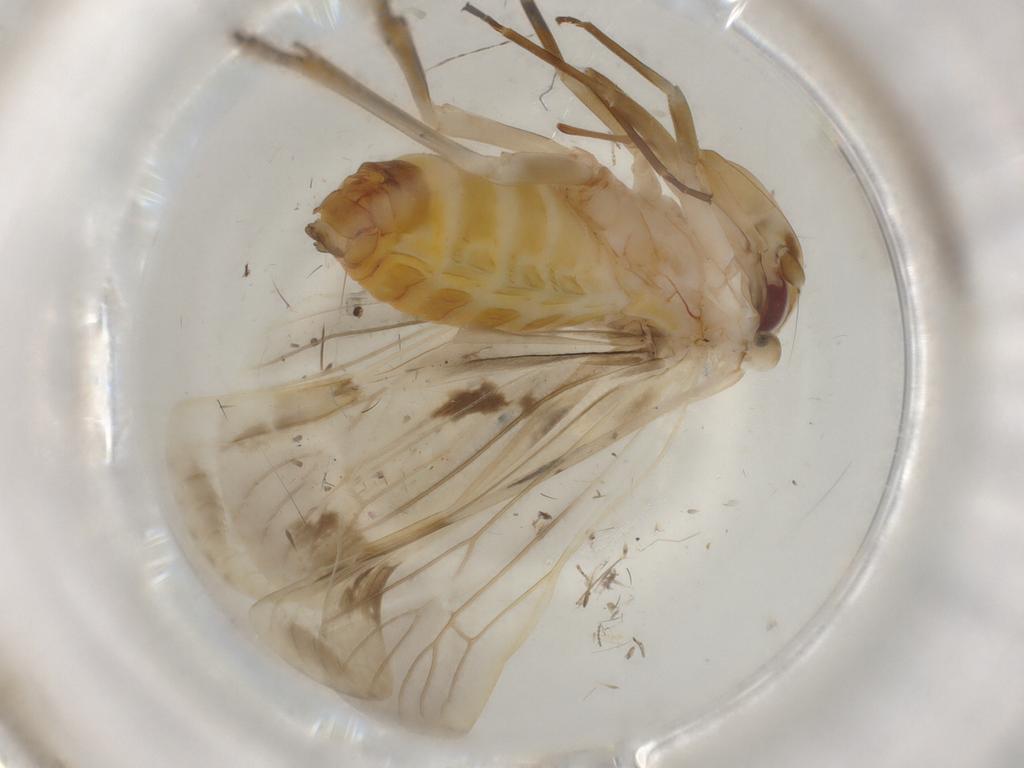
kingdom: Animalia
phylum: Arthropoda
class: Insecta
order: Hemiptera
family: Achilidae
